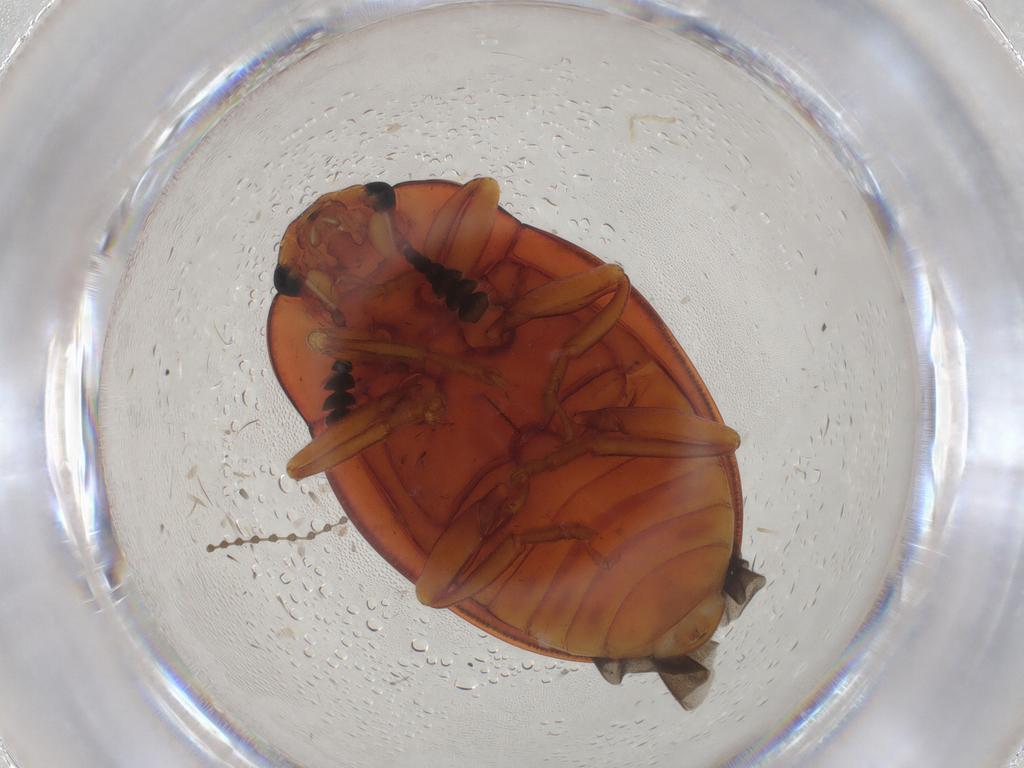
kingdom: Animalia
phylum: Arthropoda
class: Insecta
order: Coleoptera
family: Erotylidae
